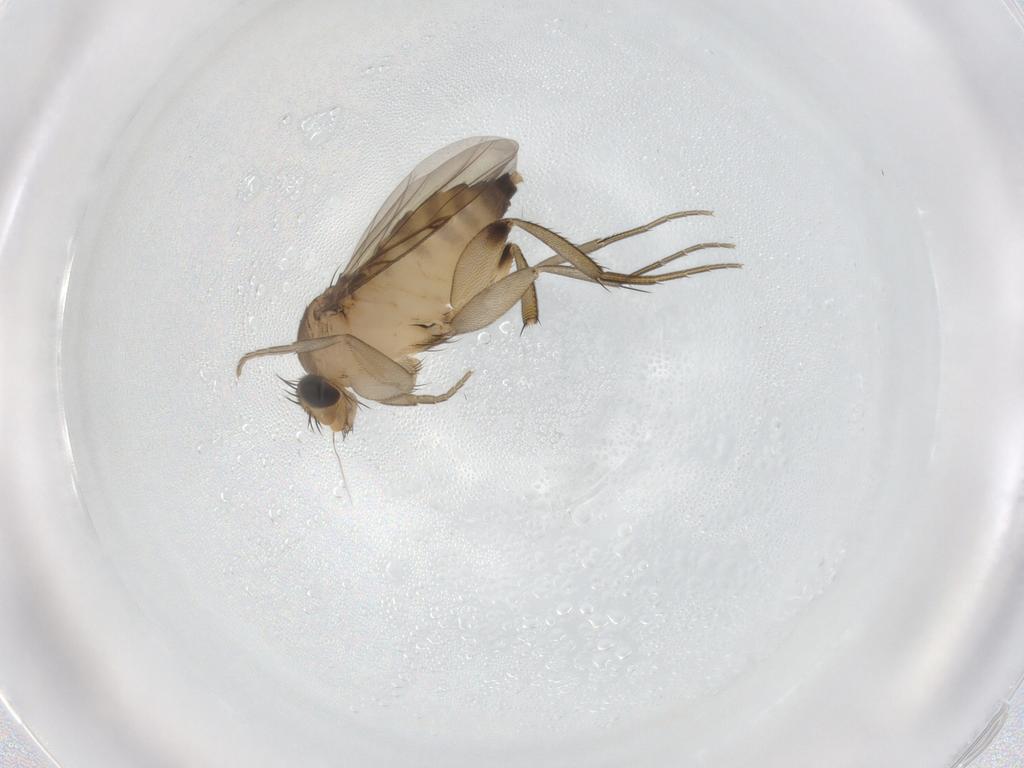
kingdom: Animalia
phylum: Arthropoda
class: Insecta
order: Diptera
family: Phoridae
